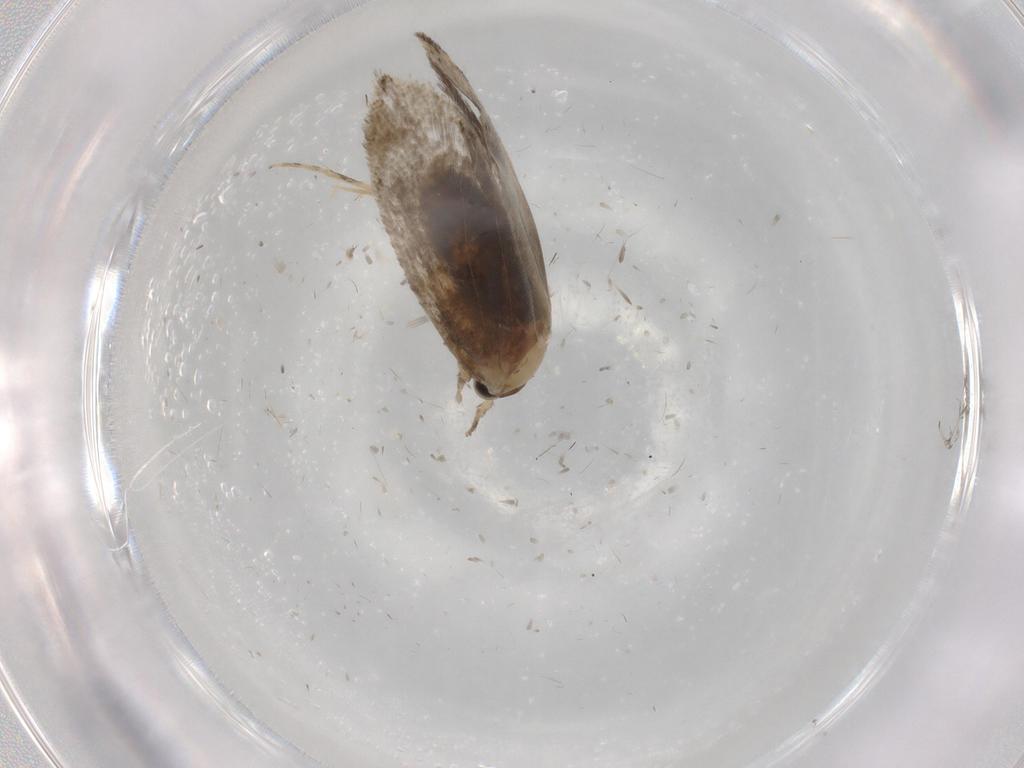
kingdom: Animalia
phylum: Arthropoda
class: Insecta
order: Lepidoptera
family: Tineidae
